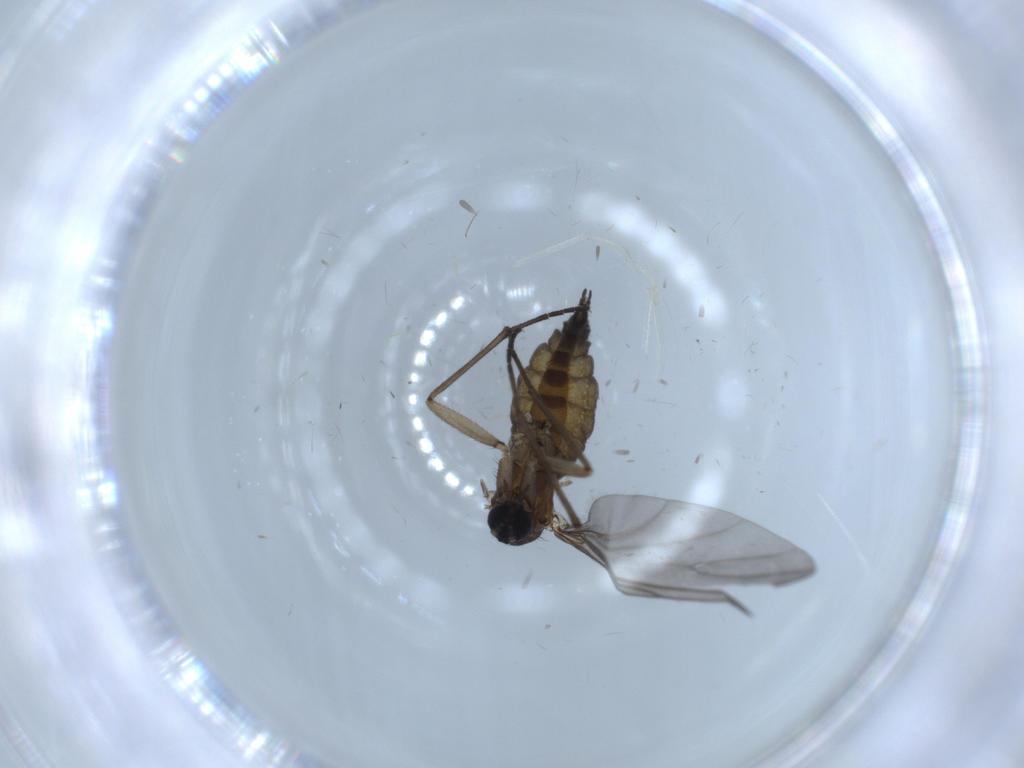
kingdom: Animalia
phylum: Arthropoda
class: Insecta
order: Diptera
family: Sciaridae
